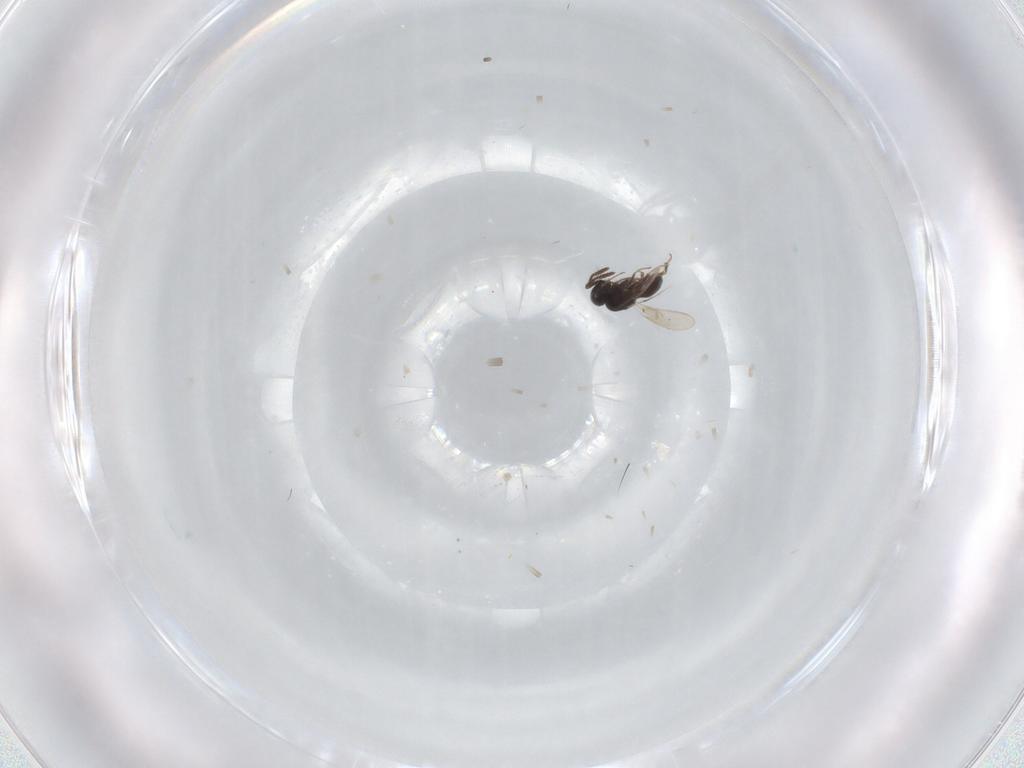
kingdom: Animalia
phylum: Arthropoda
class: Insecta
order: Hymenoptera
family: Scelionidae
